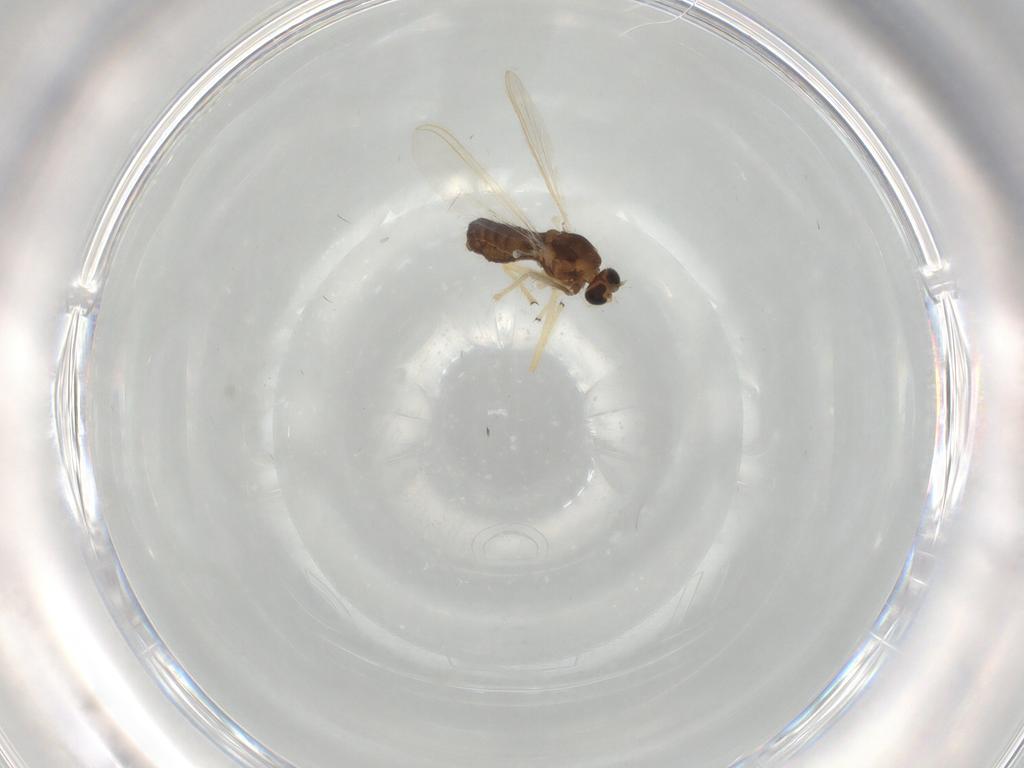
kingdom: Animalia
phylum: Arthropoda
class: Insecta
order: Diptera
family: Chironomidae
